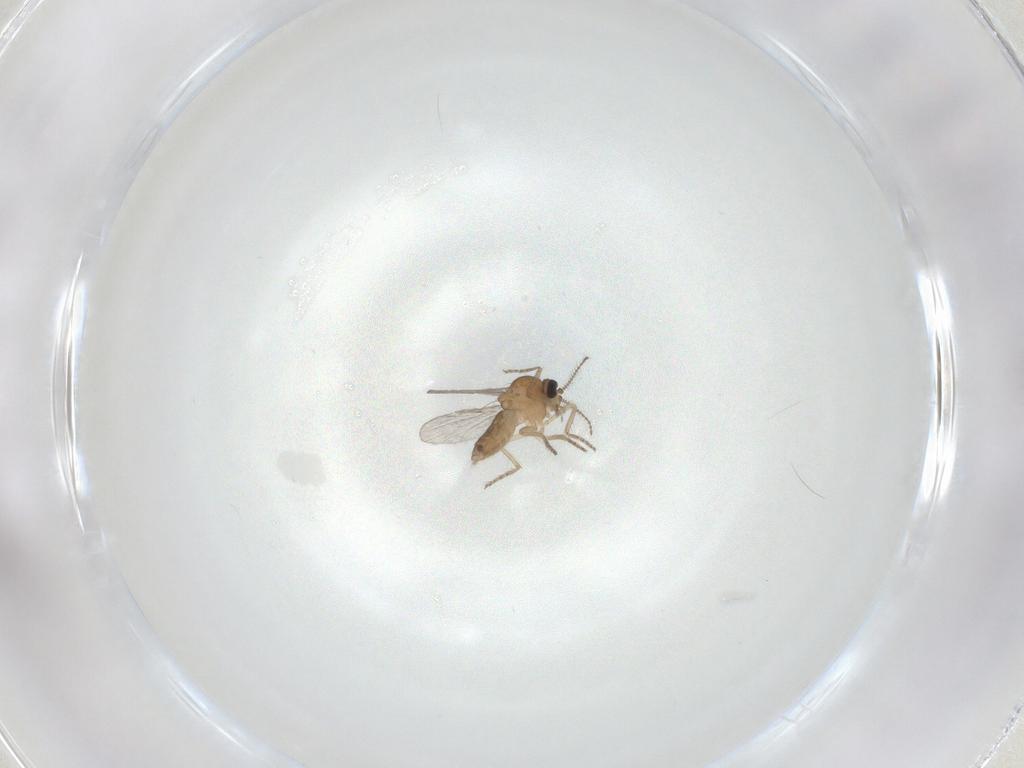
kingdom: Animalia
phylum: Arthropoda
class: Insecta
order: Diptera
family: Ceratopogonidae
